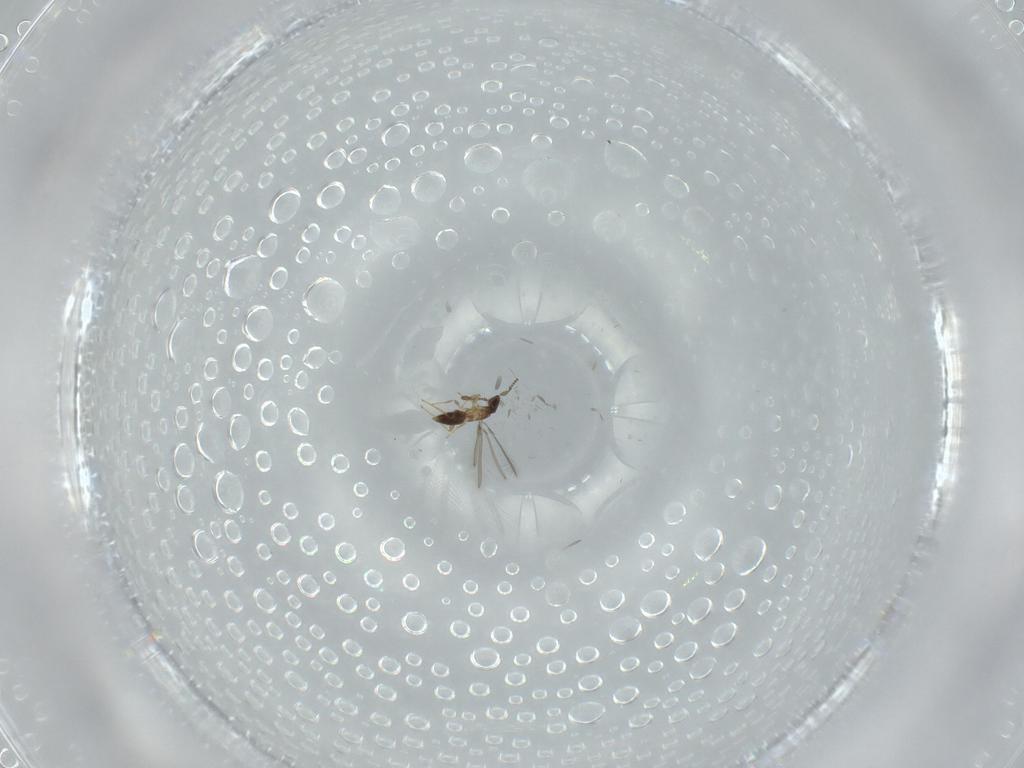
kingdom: Animalia
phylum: Arthropoda
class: Insecta
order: Hymenoptera
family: Mymaridae
